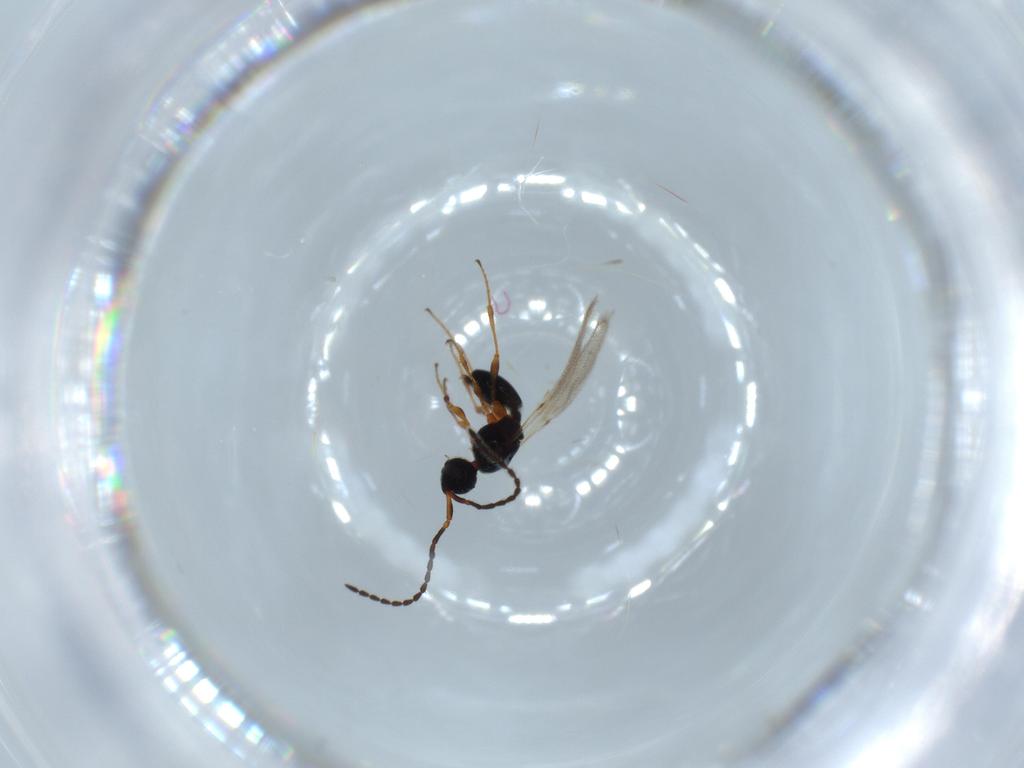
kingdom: Animalia
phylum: Arthropoda
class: Insecta
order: Hymenoptera
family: Formicidae
